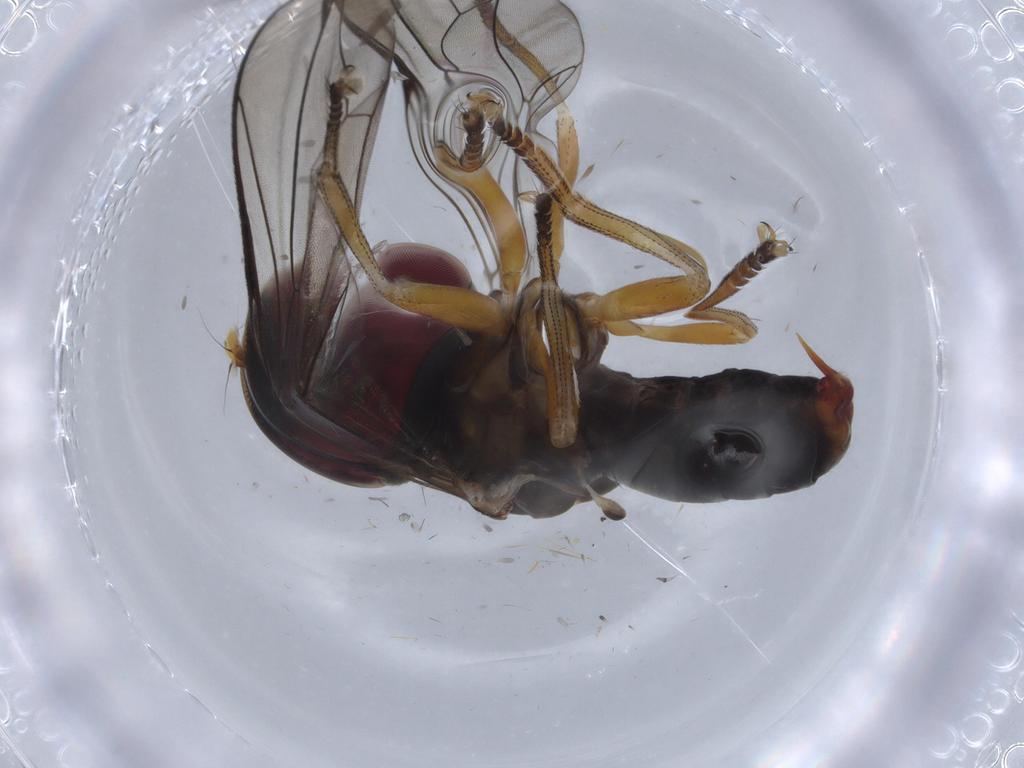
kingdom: Animalia
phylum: Arthropoda
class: Insecta
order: Diptera
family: Pipunculidae
